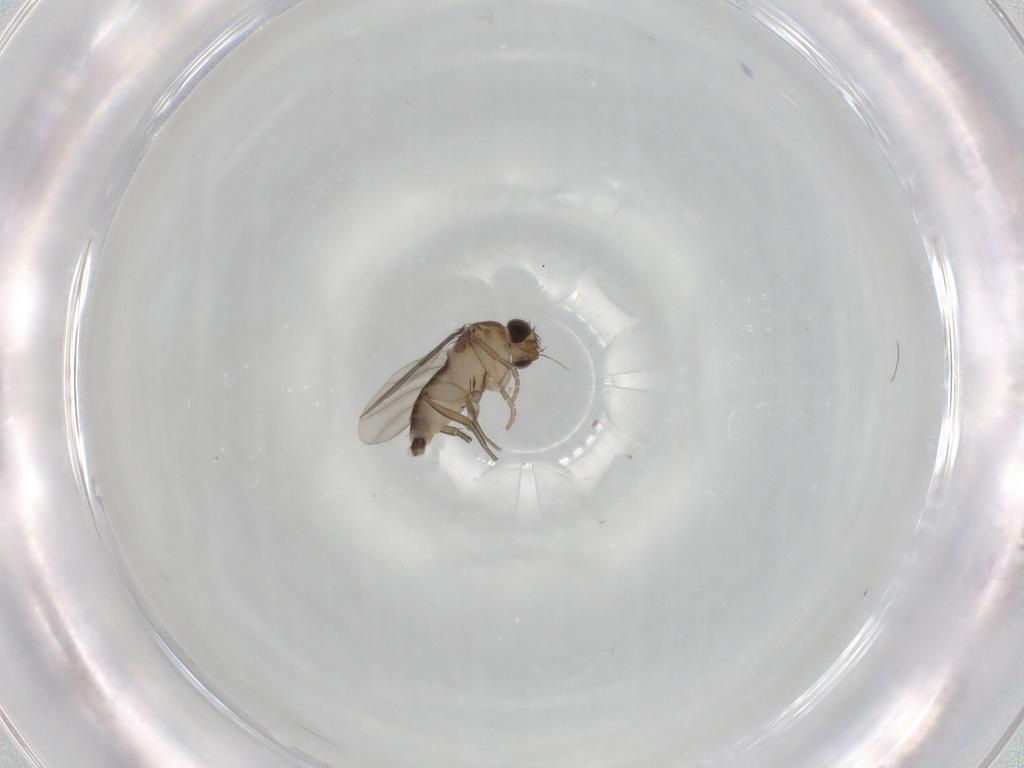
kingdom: Animalia
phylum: Arthropoda
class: Insecta
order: Diptera
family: Phoridae
